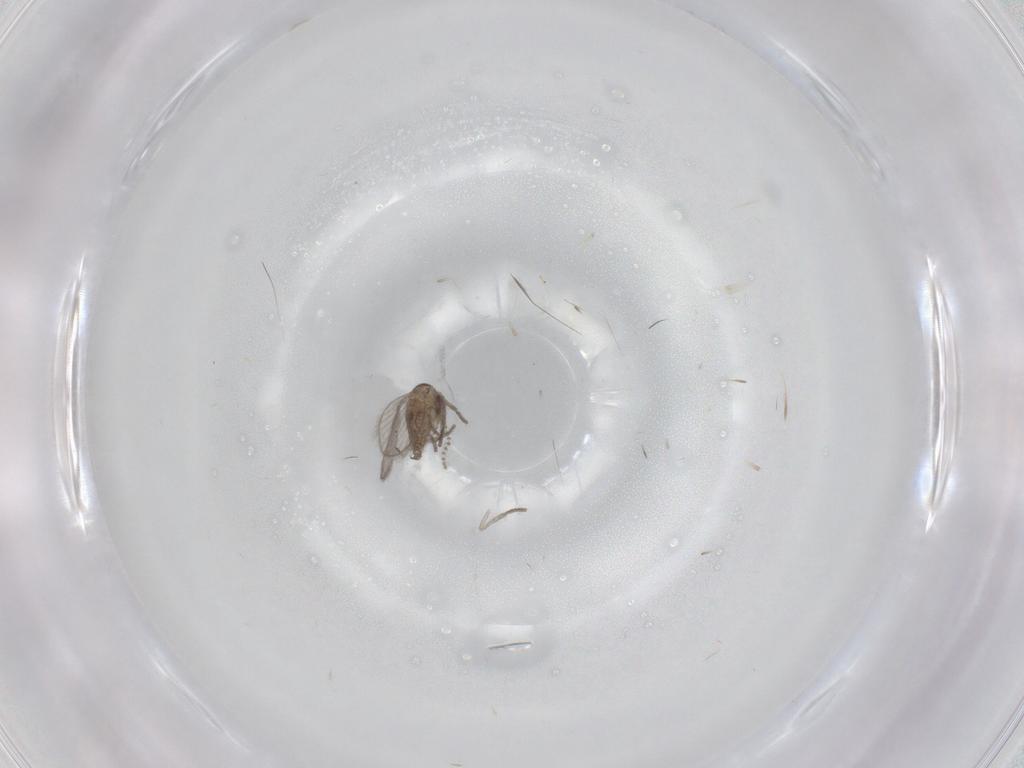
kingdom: Animalia
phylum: Arthropoda
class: Insecta
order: Diptera
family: Psychodidae
